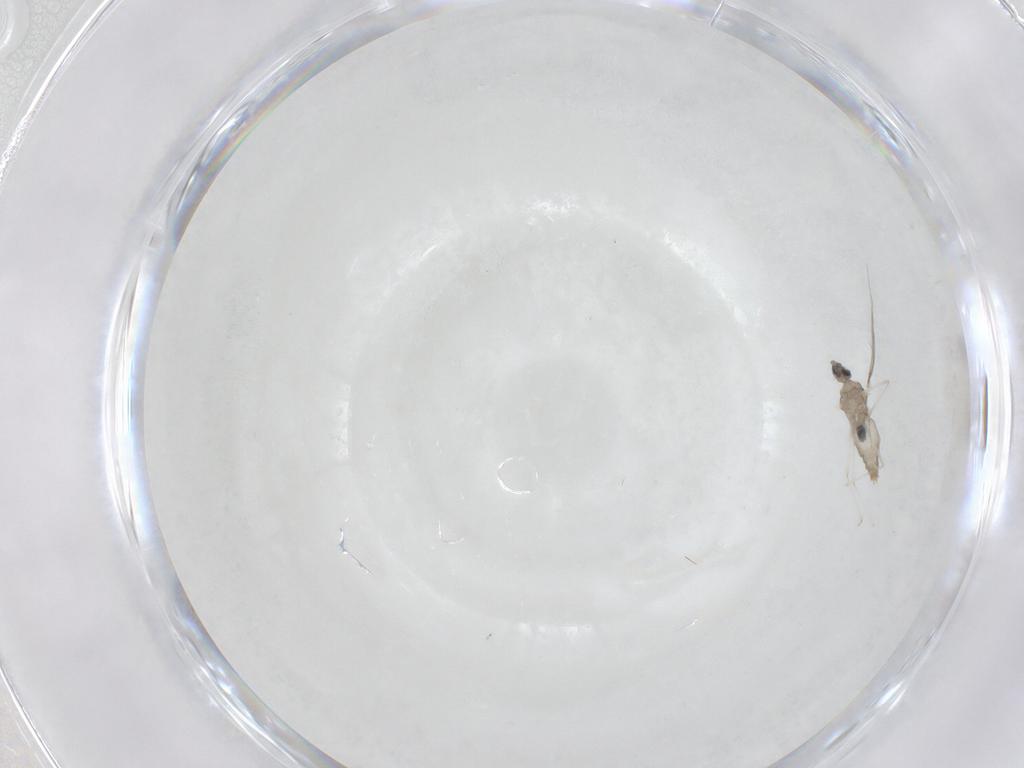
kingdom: Animalia
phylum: Arthropoda
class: Insecta
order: Diptera
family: Cecidomyiidae
